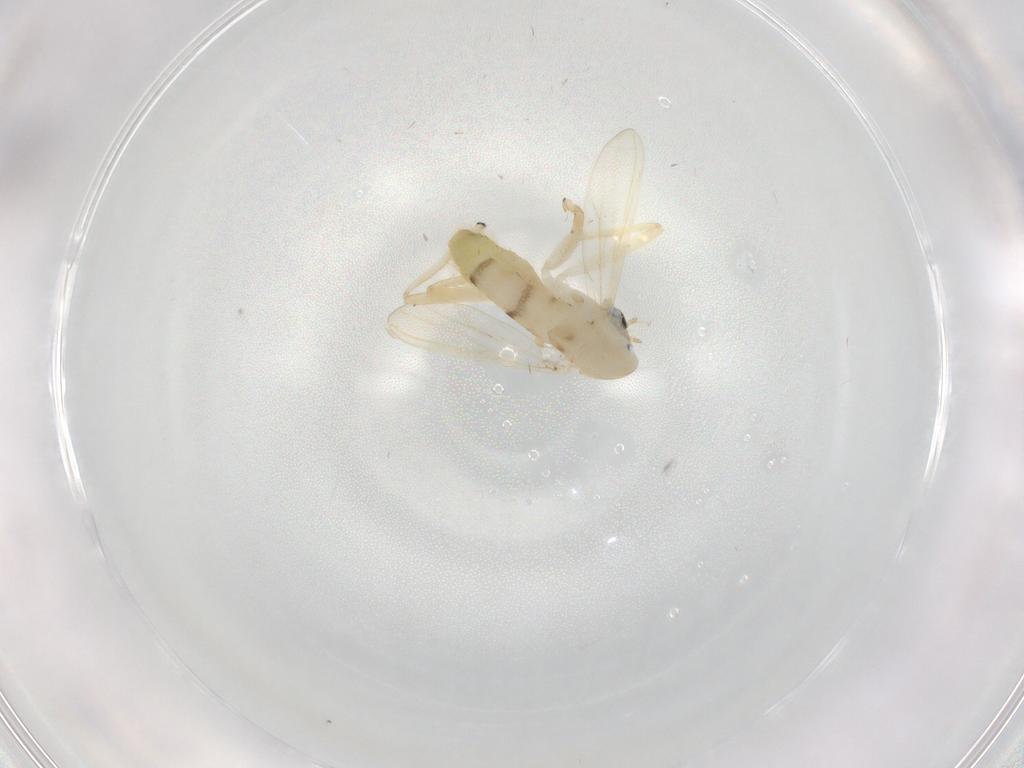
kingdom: Animalia
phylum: Arthropoda
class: Insecta
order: Diptera
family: Chironomidae
